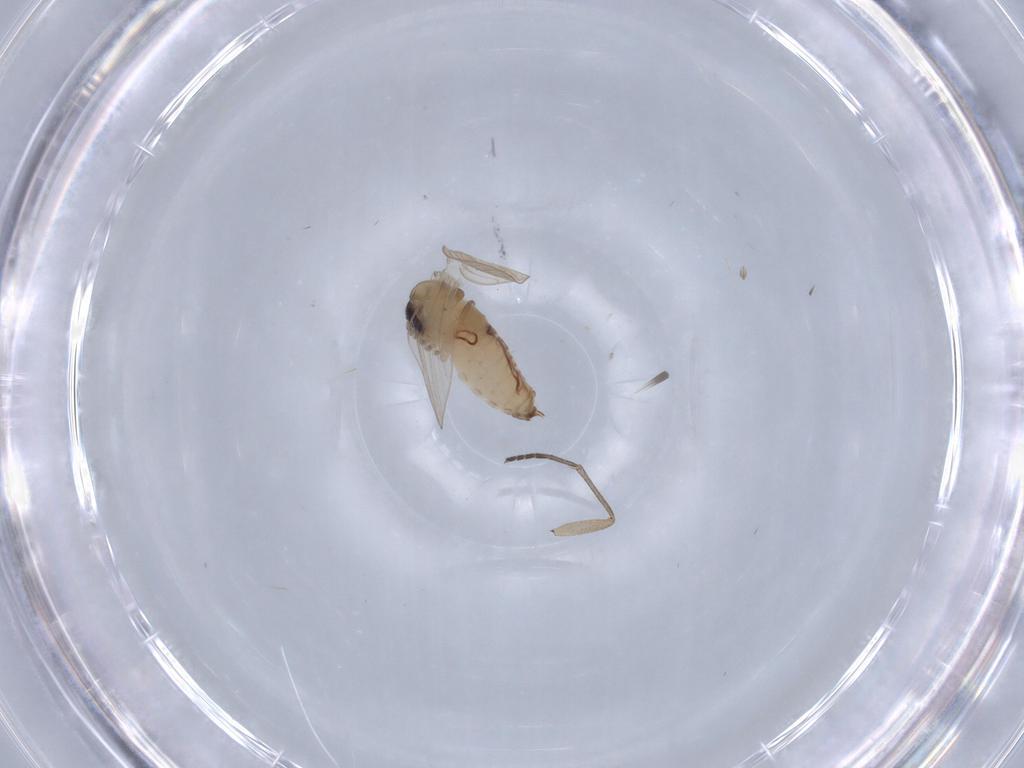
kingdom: Animalia
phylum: Arthropoda
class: Insecta
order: Diptera
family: Psychodidae
